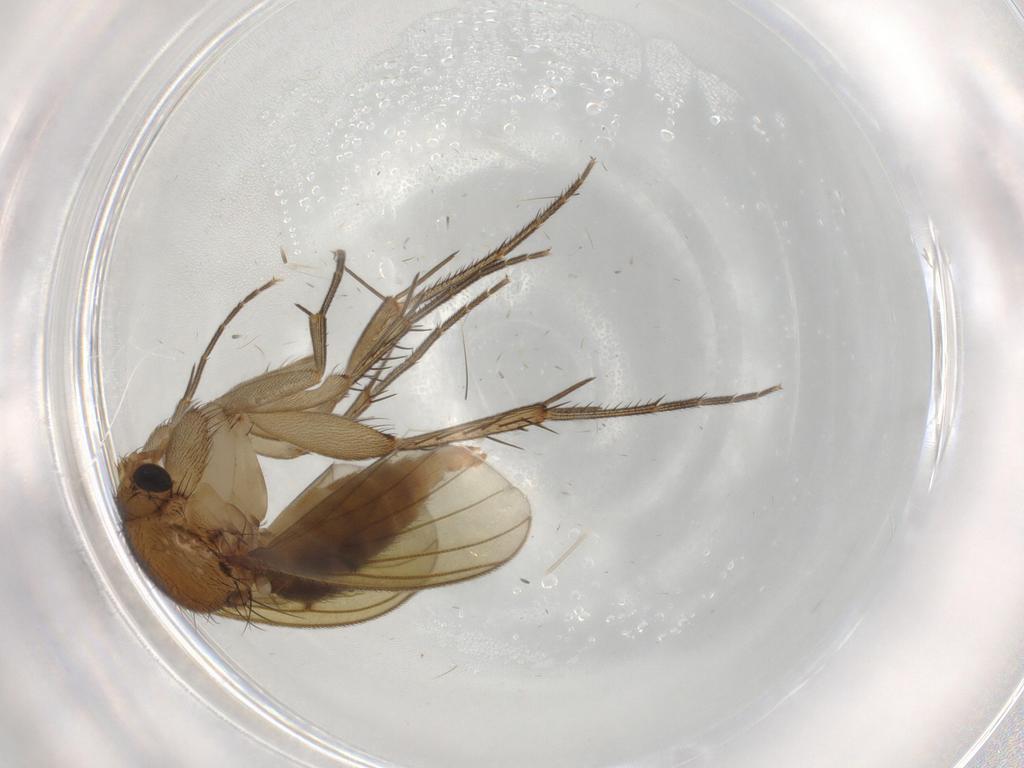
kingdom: Animalia
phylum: Arthropoda
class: Insecta
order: Diptera
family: Mycetophilidae
